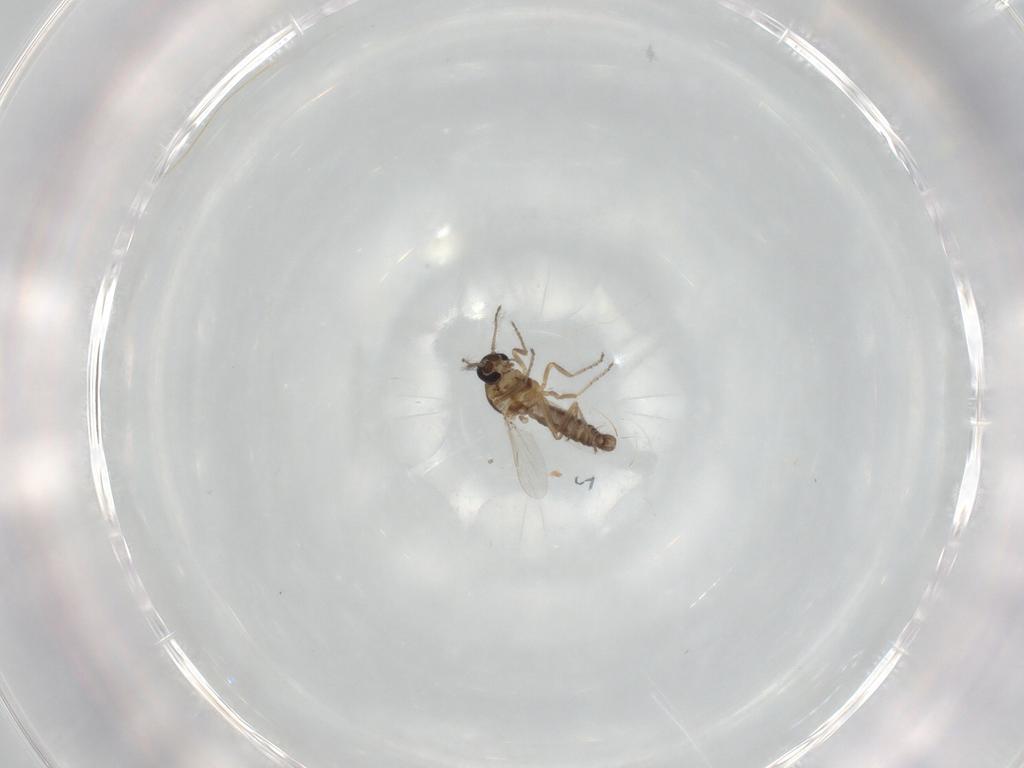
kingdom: Animalia
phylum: Arthropoda
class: Insecta
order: Diptera
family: Ceratopogonidae
